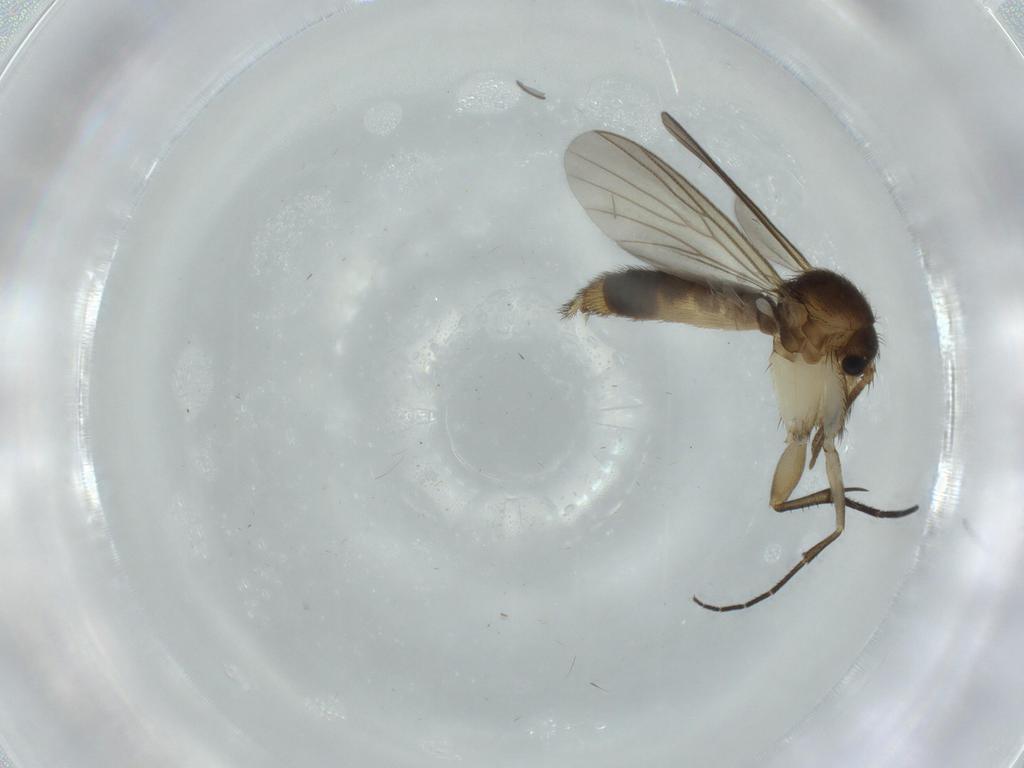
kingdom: Animalia
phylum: Arthropoda
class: Insecta
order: Diptera
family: Mycetophilidae
